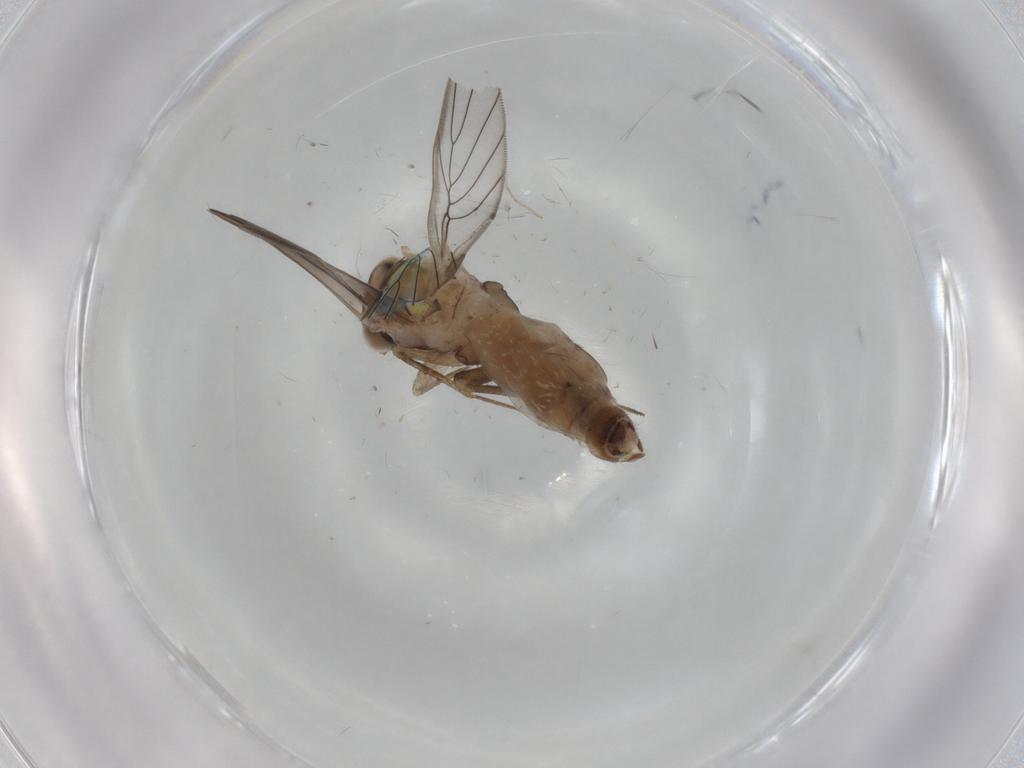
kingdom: Animalia
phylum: Arthropoda
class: Insecta
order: Psocodea
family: Lepidopsocidae
